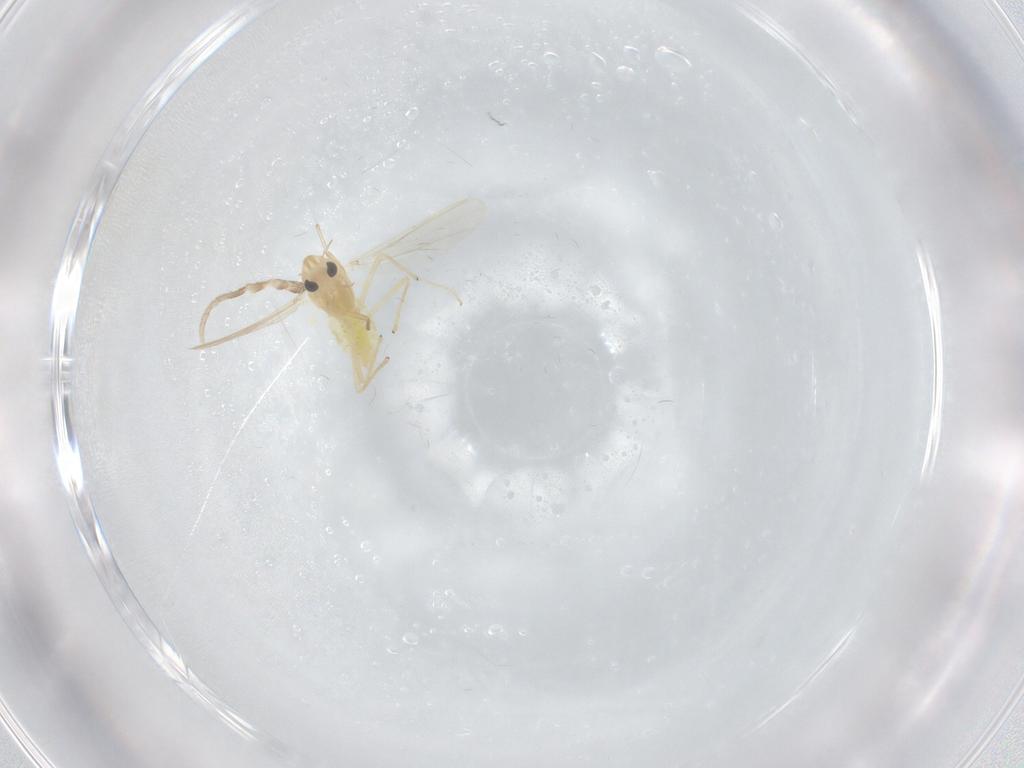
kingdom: Animalia
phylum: Arthropoda
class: Insecta
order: Diptera
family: Chironomidae
